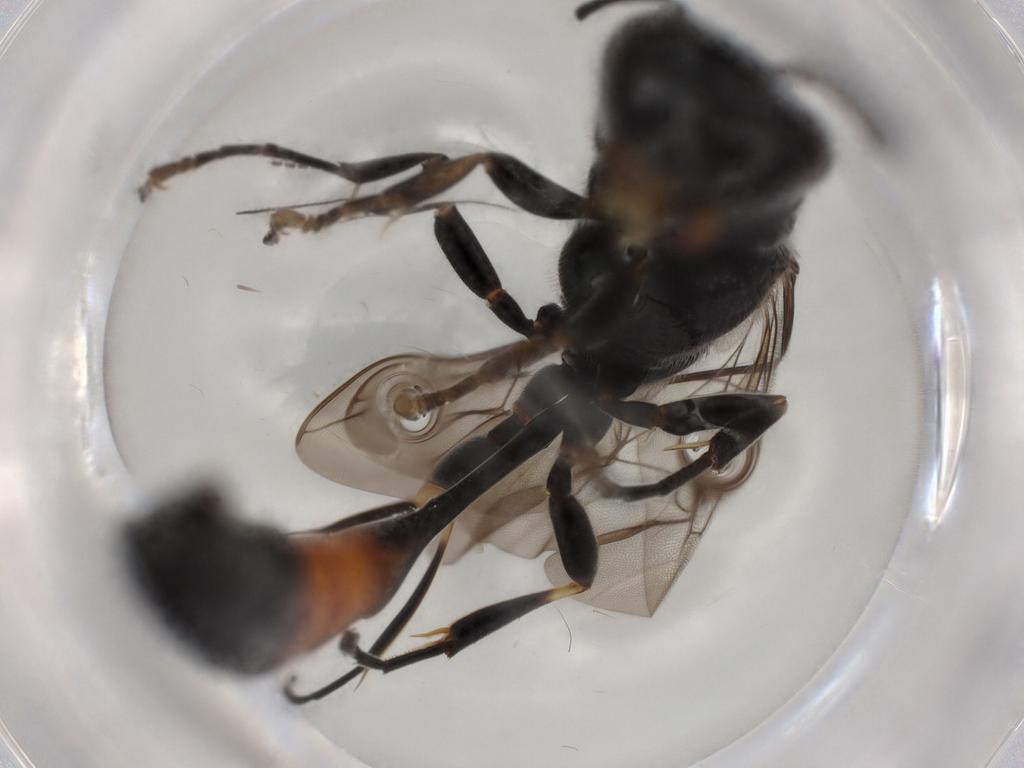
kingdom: Animalia
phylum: Arthropoda
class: Insecta
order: Hymenoptera
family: Crabronidae
